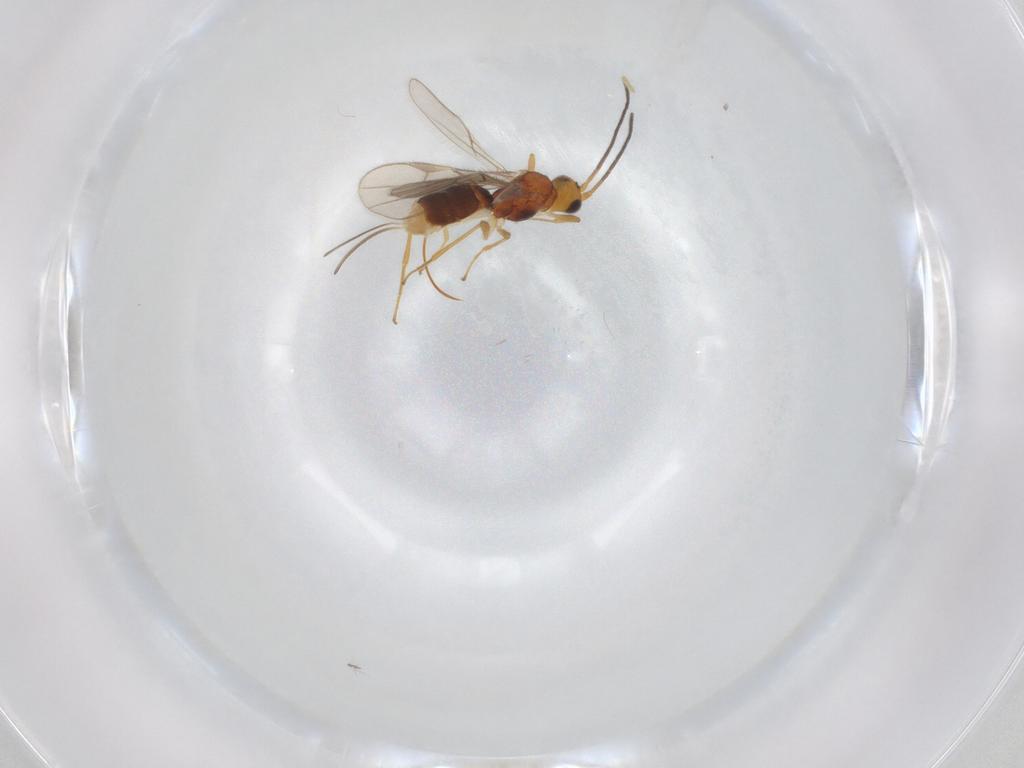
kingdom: Animalia
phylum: Arthropoda
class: Insecta
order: Hymenoptera
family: Braconidae
